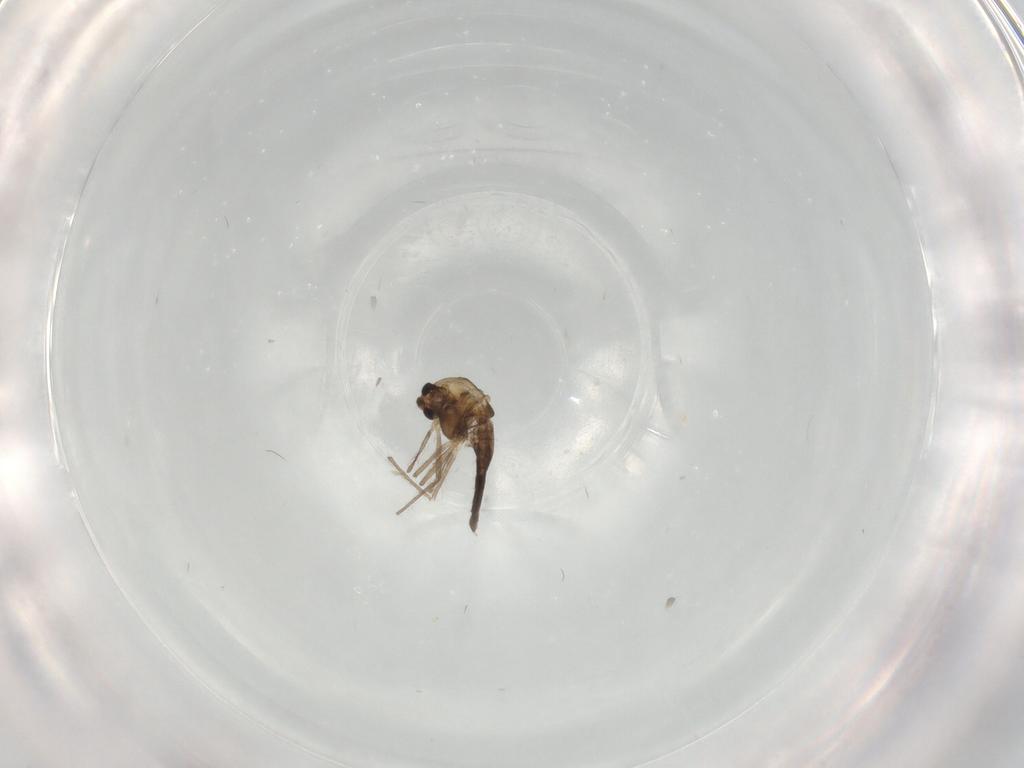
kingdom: Animalia
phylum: Arthropoda
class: Insecta
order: Diptera
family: Chironomidae
